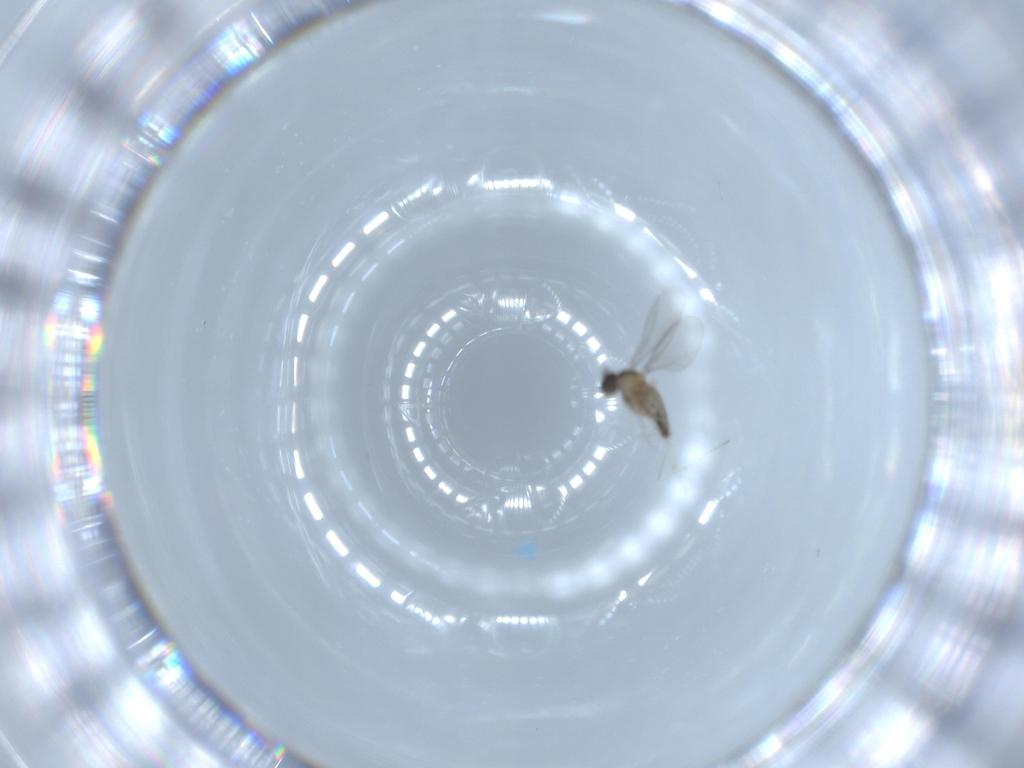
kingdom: Animalia
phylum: Arthropoda
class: Insecta
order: Diptera
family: Cecidomyiidae
